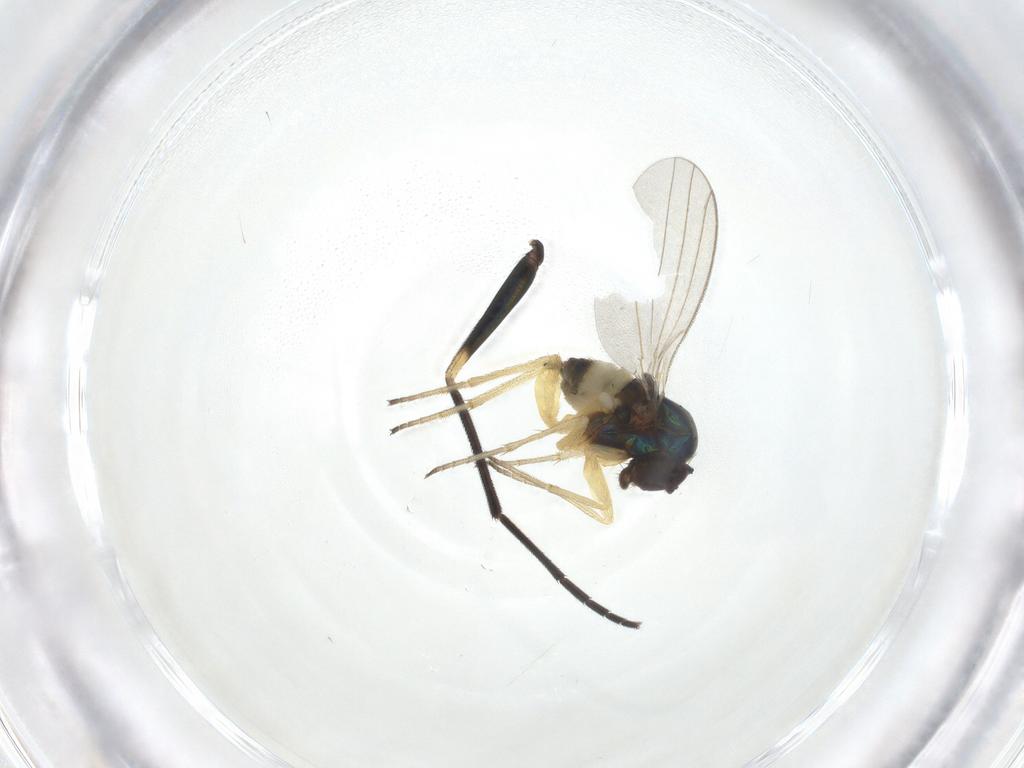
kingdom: Animalia
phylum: Arthropoda
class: Insecta
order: Diptera
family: Dolichopodidae
